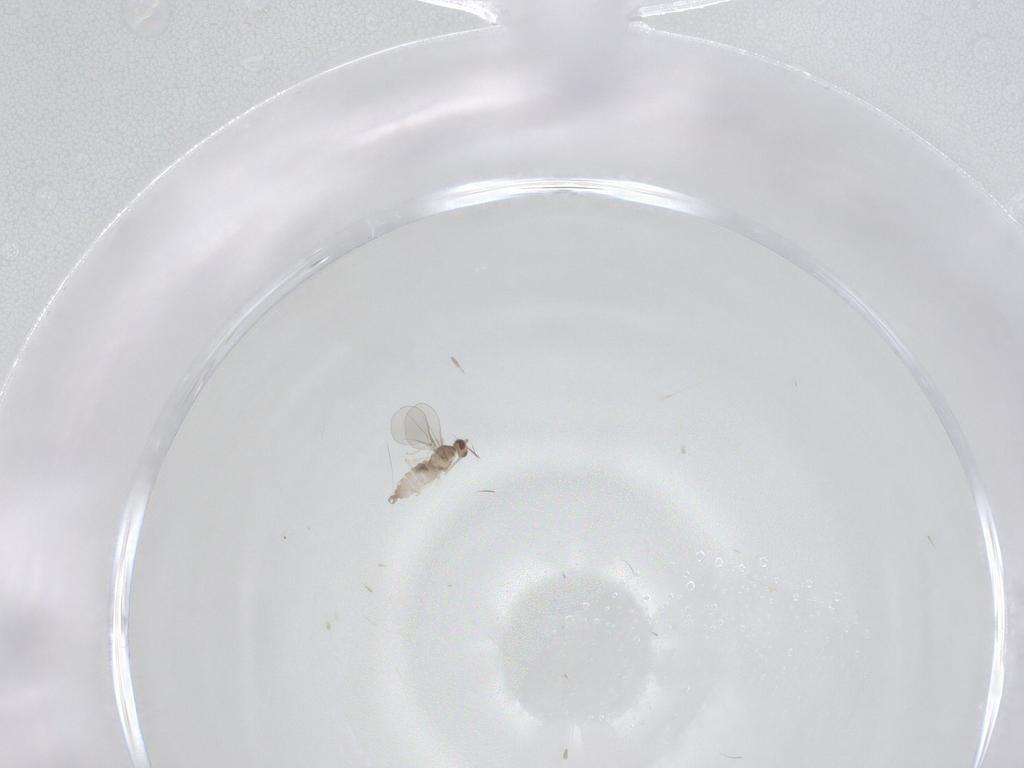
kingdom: Animalia
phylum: Arthropoda
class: Insecta
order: Diptera
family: Cecidomyiidae
